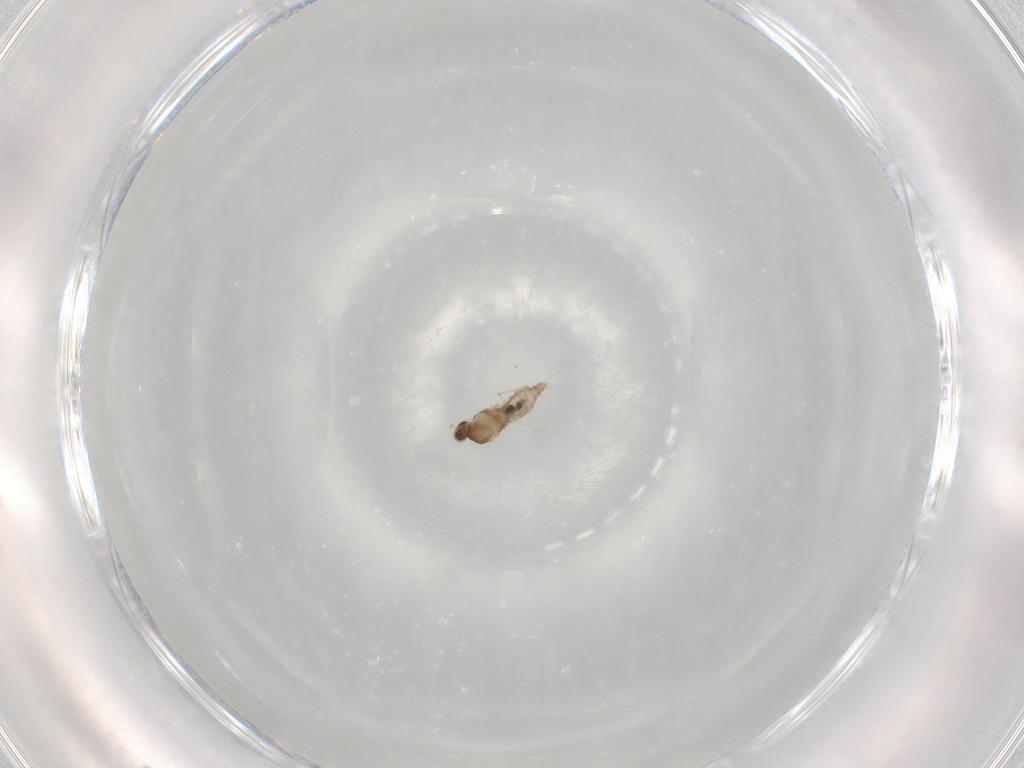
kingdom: Animalia
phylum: Arthropoda
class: Insecta
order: Diptera
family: Cecidomyiidae
